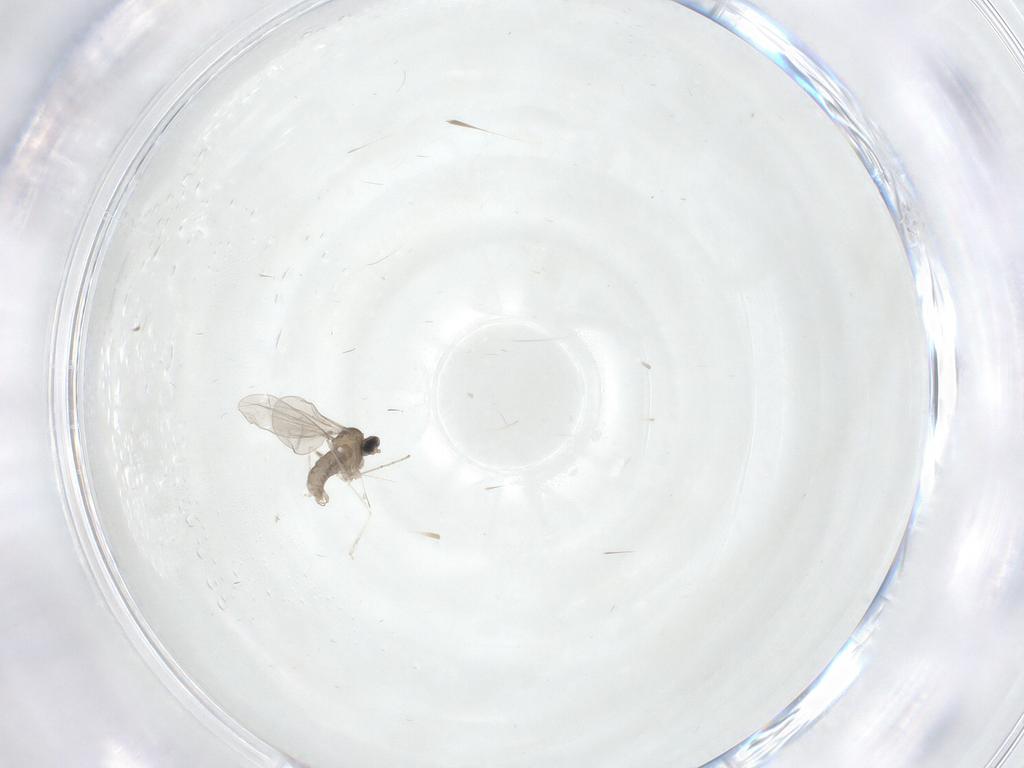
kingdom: Animalia
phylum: Arthropoda
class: Insecta
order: Diptera
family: Cecidomyiidae
